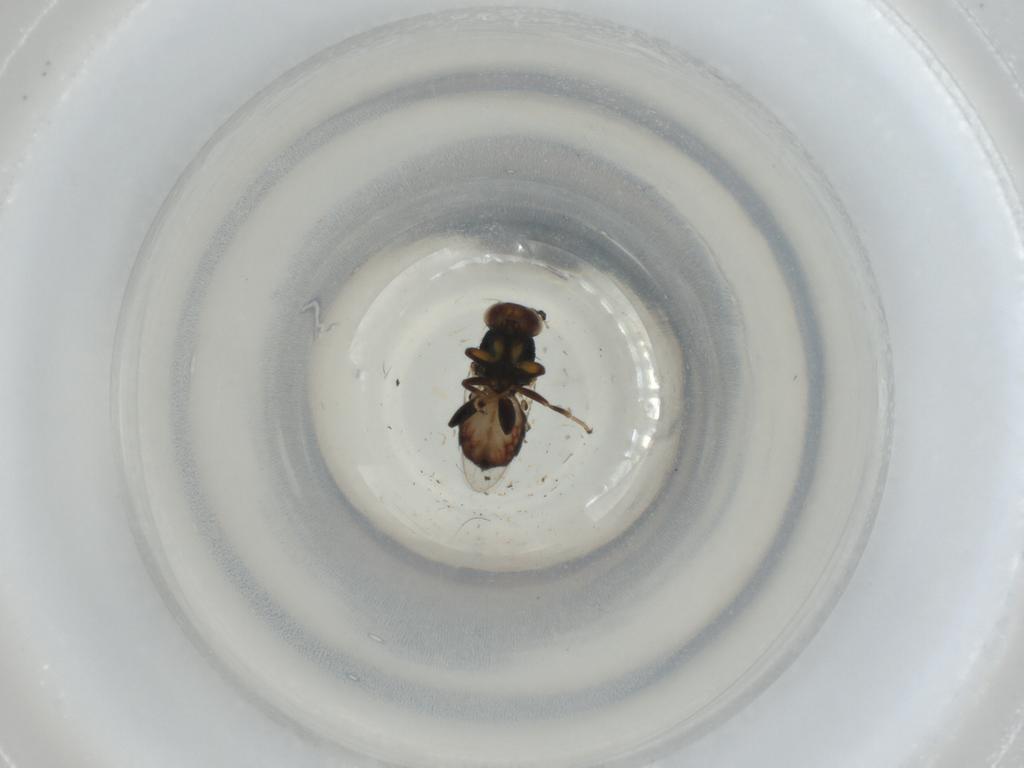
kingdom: Animalia
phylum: Arthropoda
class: Insecta
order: Diptera
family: Chloropidae
